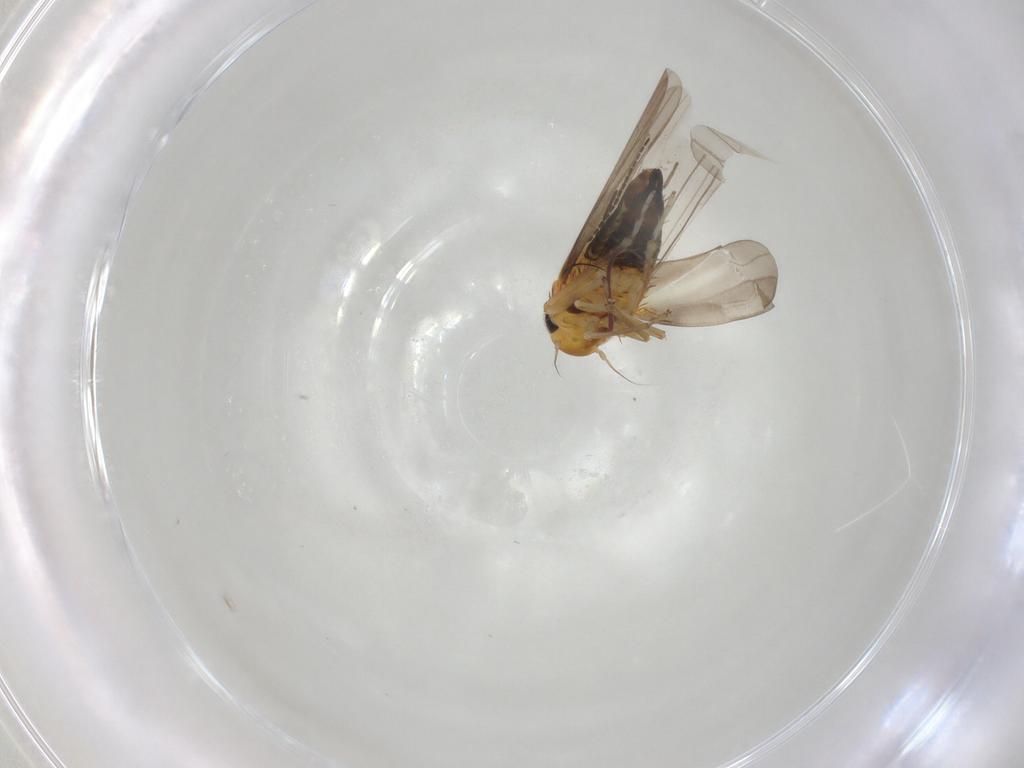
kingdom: Animalia
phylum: Arthropoda
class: Insecta
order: Hemiptera
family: Cicadellidae
